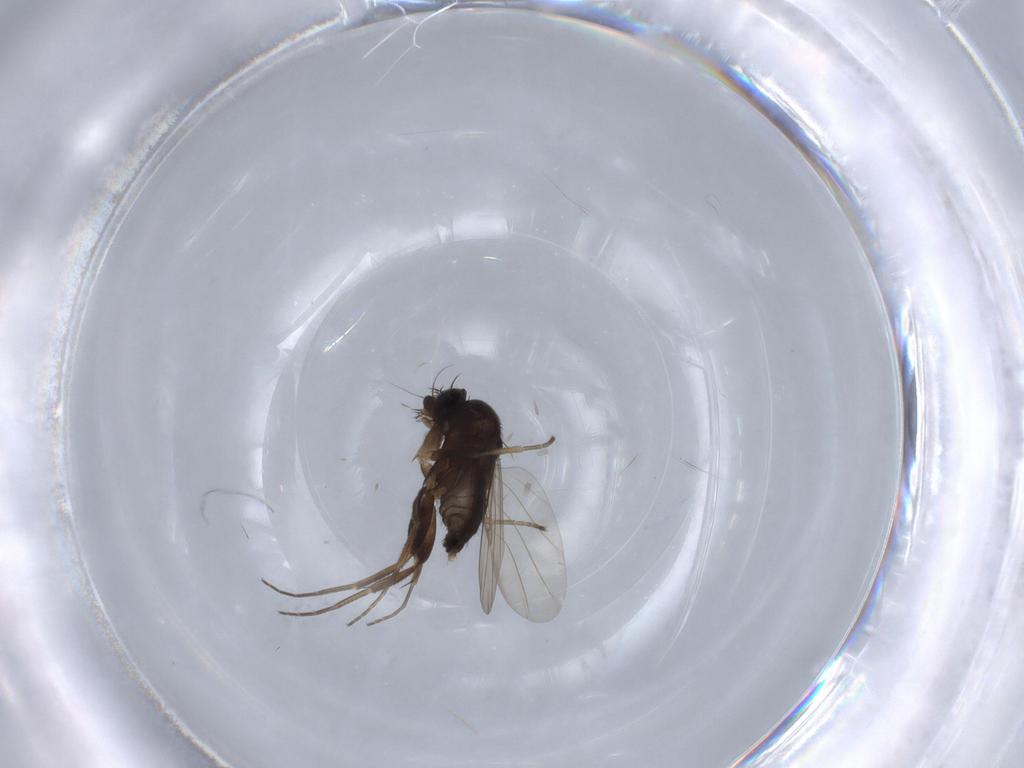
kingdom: Animalia
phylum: Arthropoda
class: Insecta
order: Diptera
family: Phoridae
